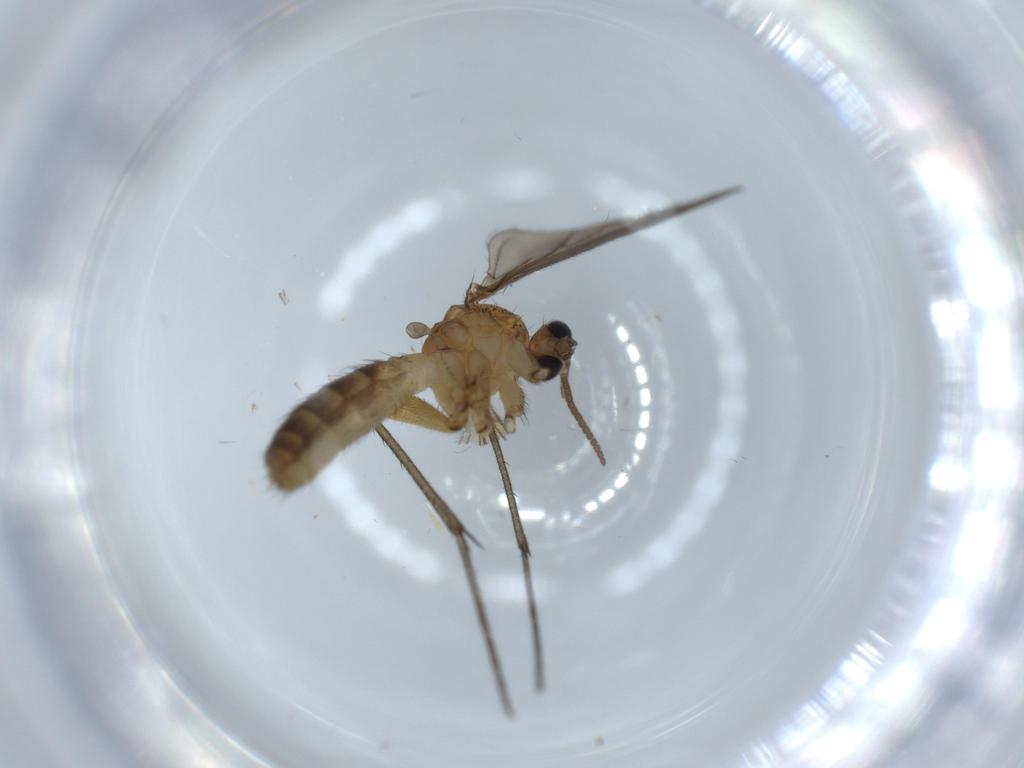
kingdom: Animalia
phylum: Arthropoda
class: Insecta
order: Diptera
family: Mycetophilidae
